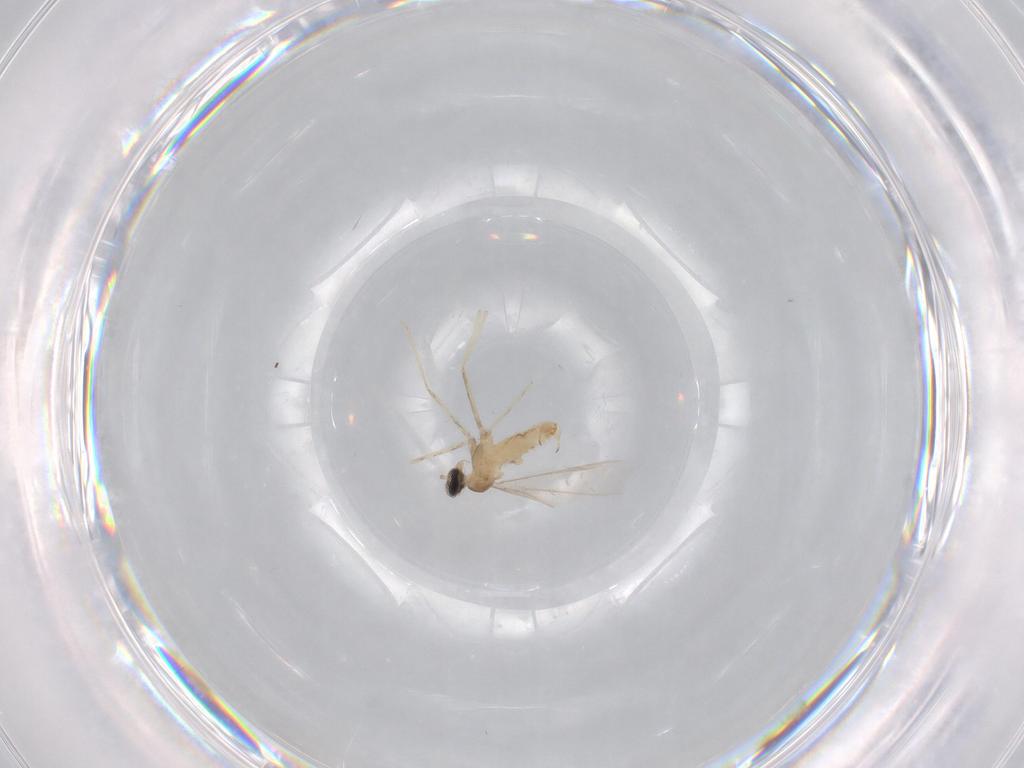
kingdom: Animalia
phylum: Arthropoda
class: Insecta
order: Diptera
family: Cecidomyiidae
